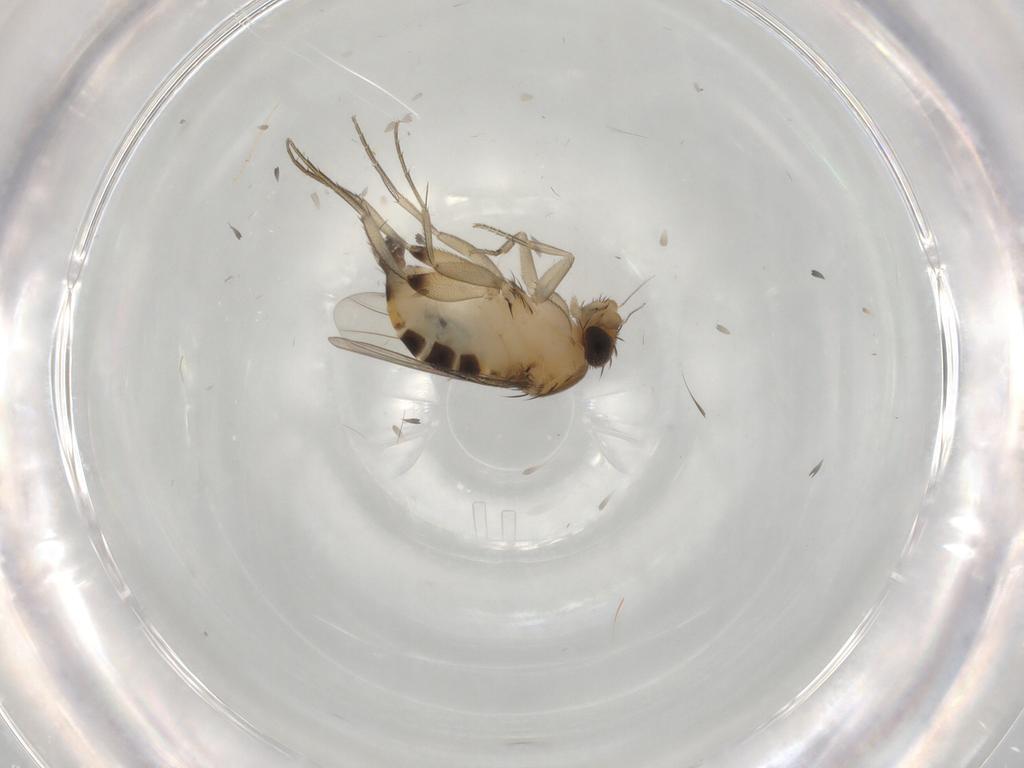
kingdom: Animalia
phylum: Arthropoda
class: Insecta
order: Diptera
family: Phoridae
